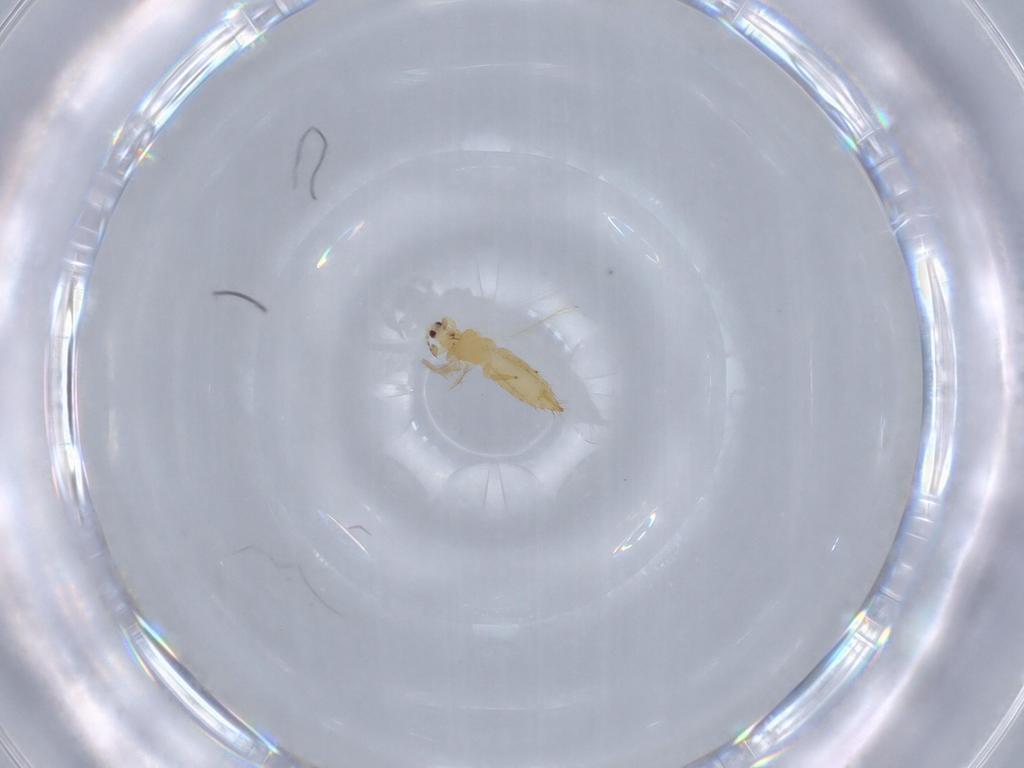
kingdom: Animalia
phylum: Arthropoda
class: Insecta
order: Thysanoptera
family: Thripidae
